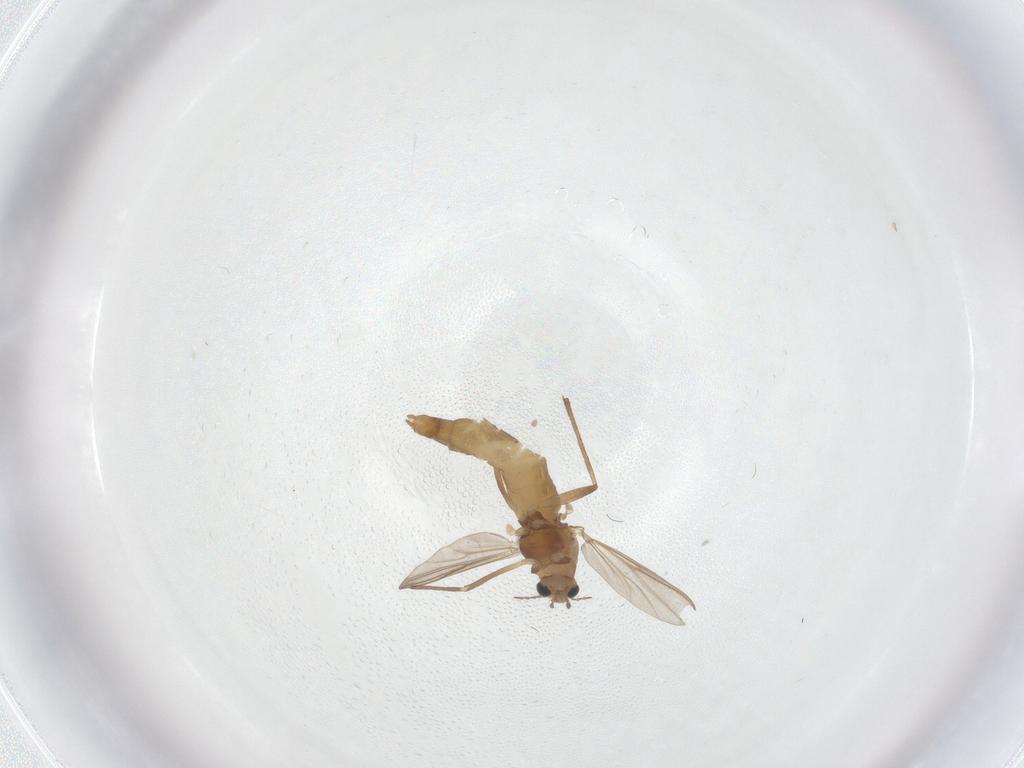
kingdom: Animalia
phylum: Arthropoda
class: Insecta
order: Diptera
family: Chironomidae
